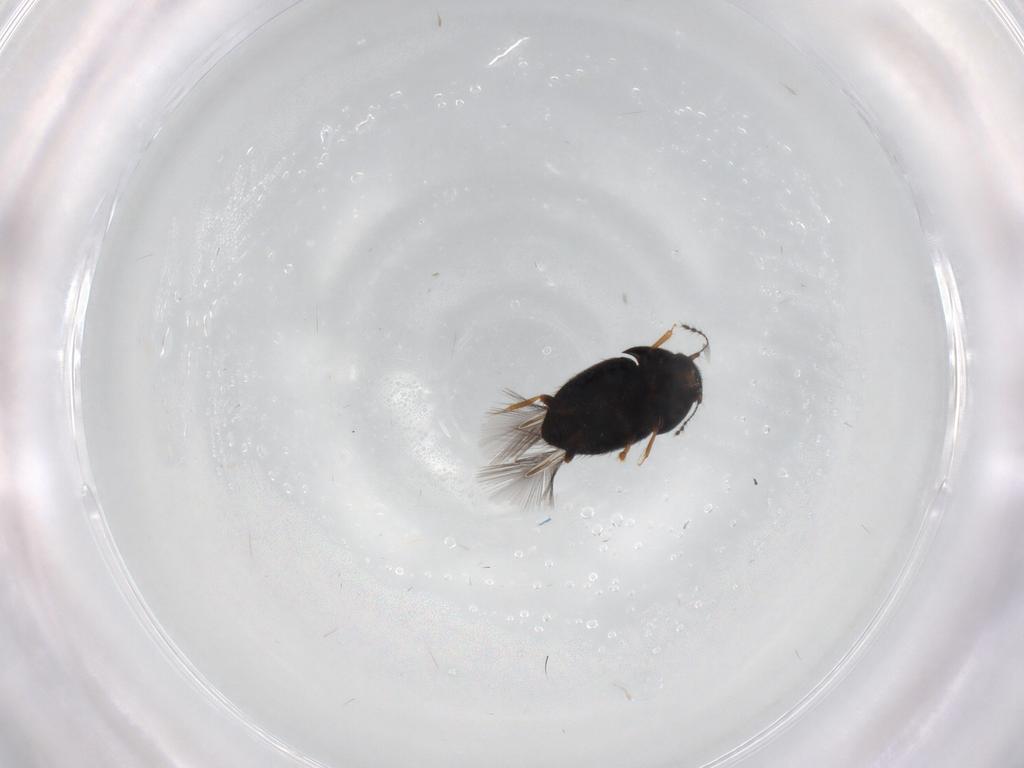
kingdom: Animalia
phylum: Arthropoda
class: Insecta
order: Coleoptera
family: Ptiliidae
